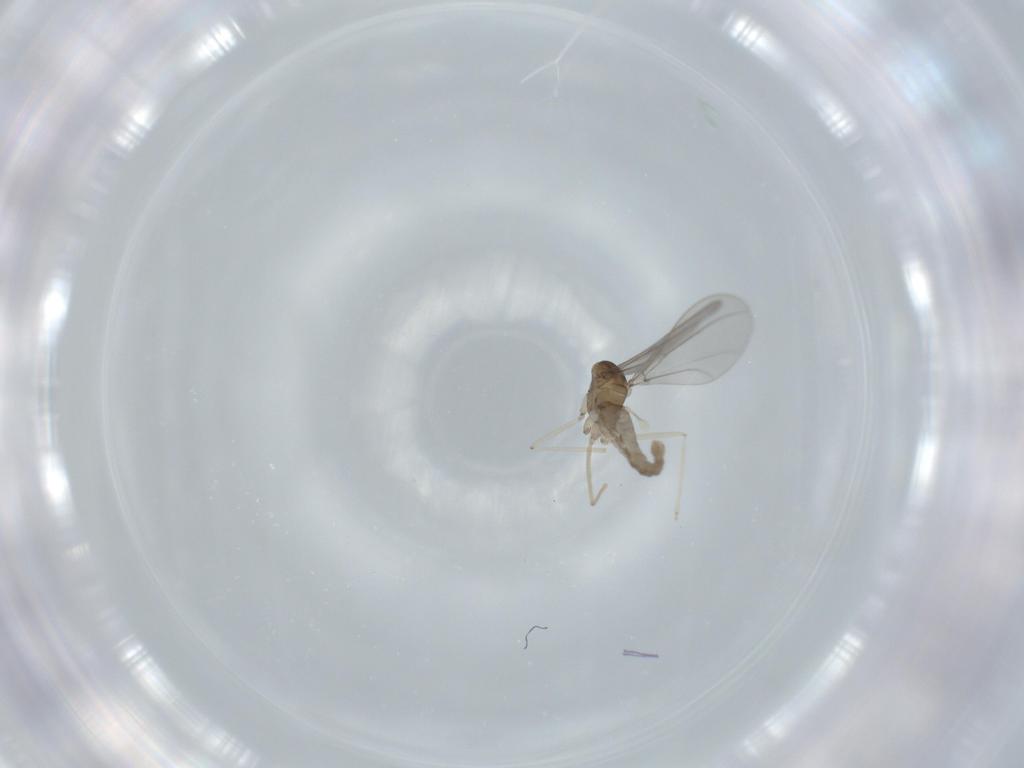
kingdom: Animalia
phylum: Arthropoda
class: Insecta
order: Diptera
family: Cecidomyiidae
